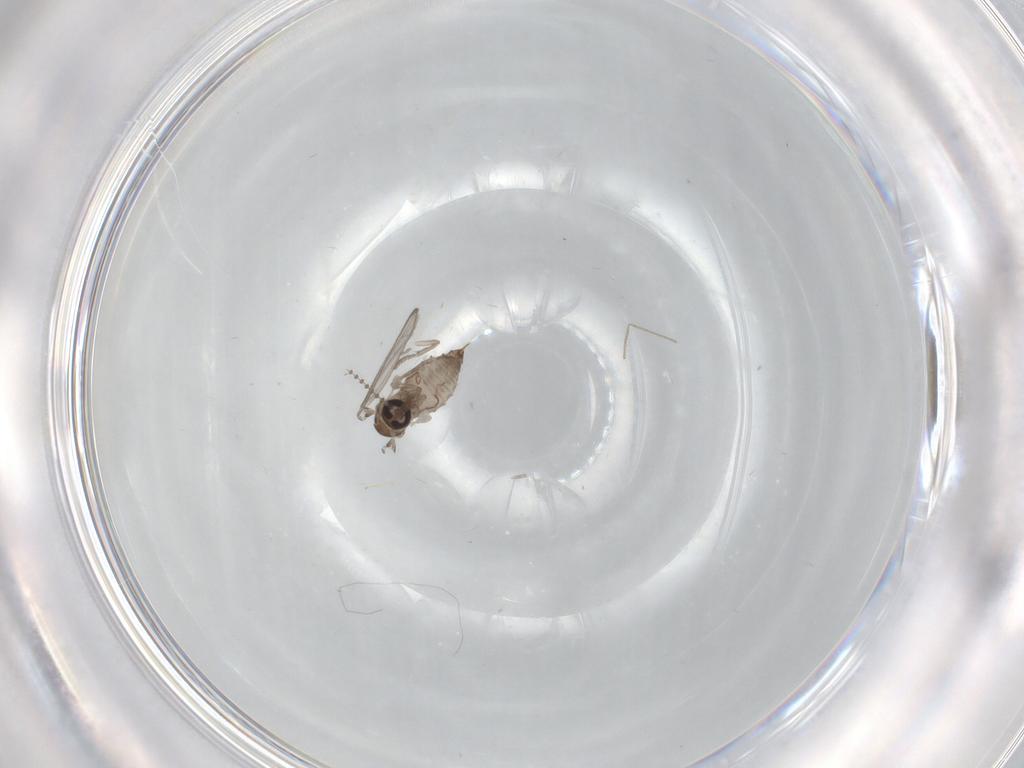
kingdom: Animalia
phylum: Arthropoda
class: Insecta
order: Diptera
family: Psychodidae
